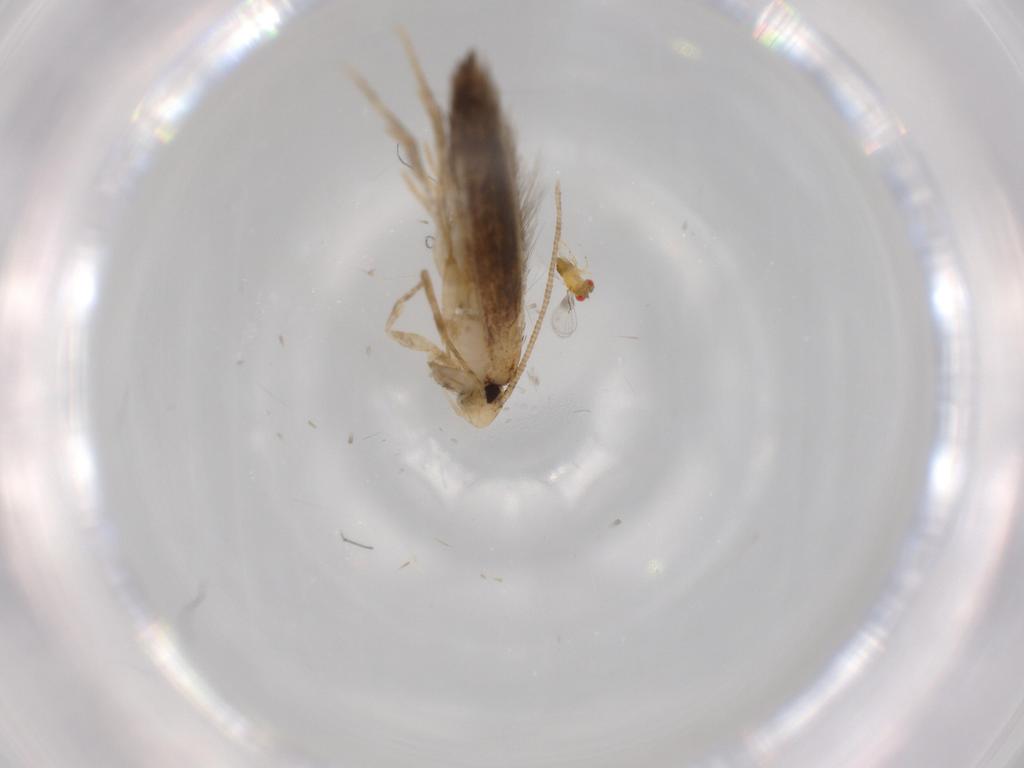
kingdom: Animalia
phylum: Arthropoda
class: Insecta
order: Lepidoptera
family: Tineidae
